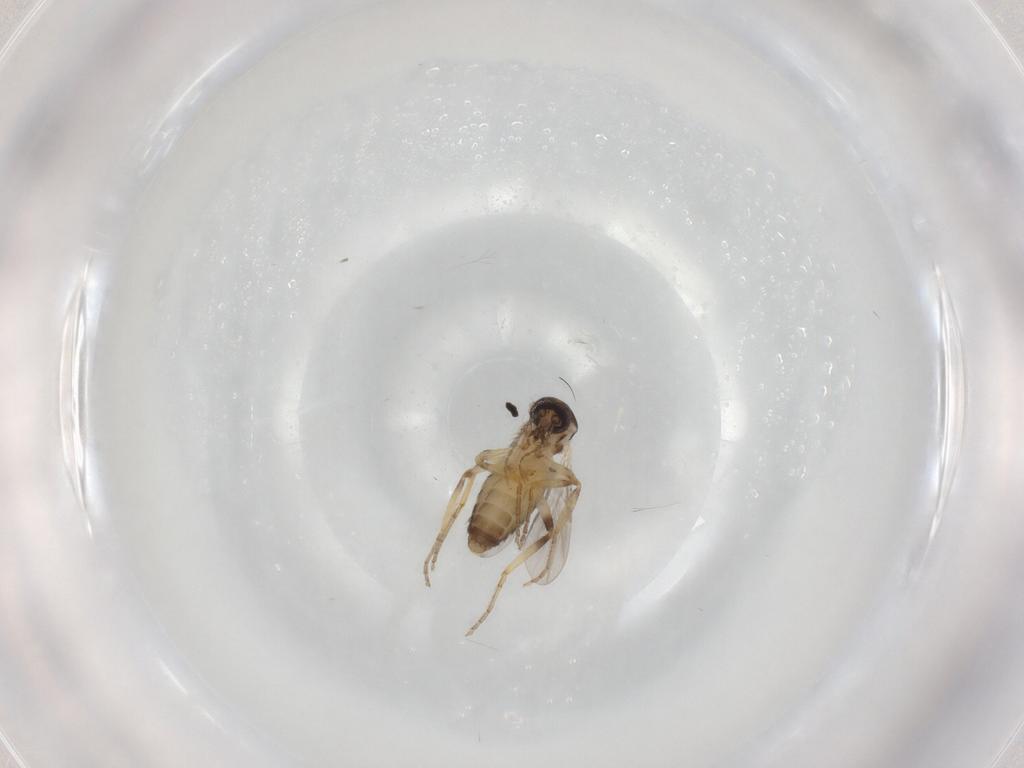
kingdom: Animalia
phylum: Arthropoda
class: Insecta
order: Diptera
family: Ceratopogonidae
